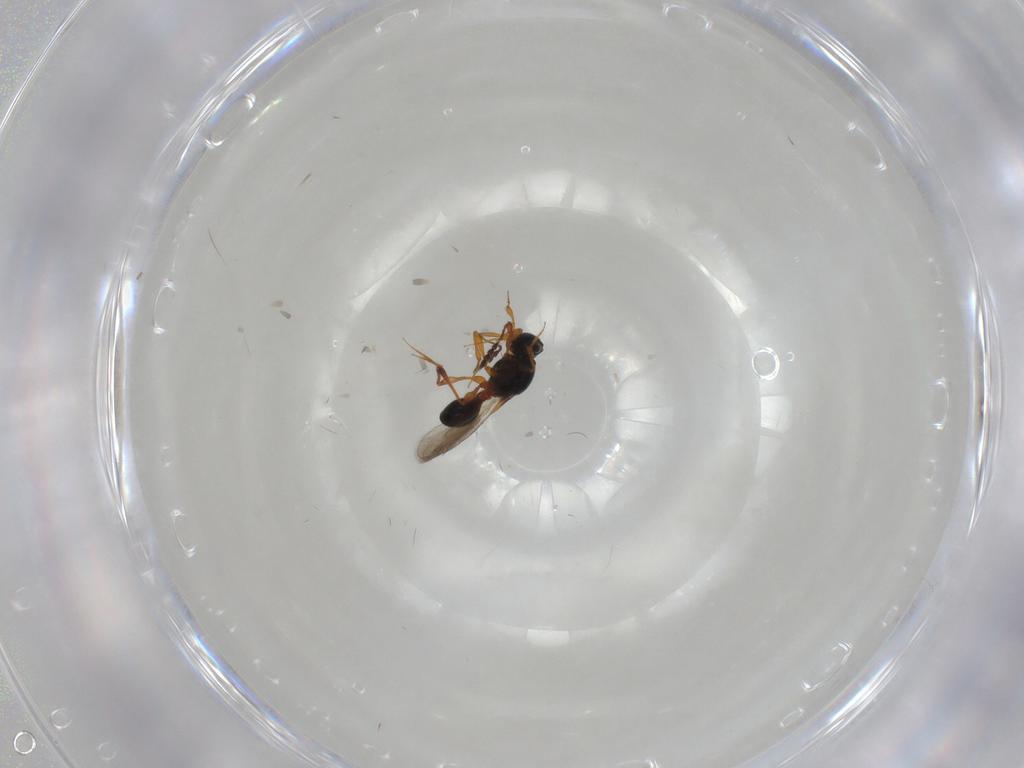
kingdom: Animalia
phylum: Arthropoda
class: Insecta
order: Hymenoptera
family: Platygastridae
